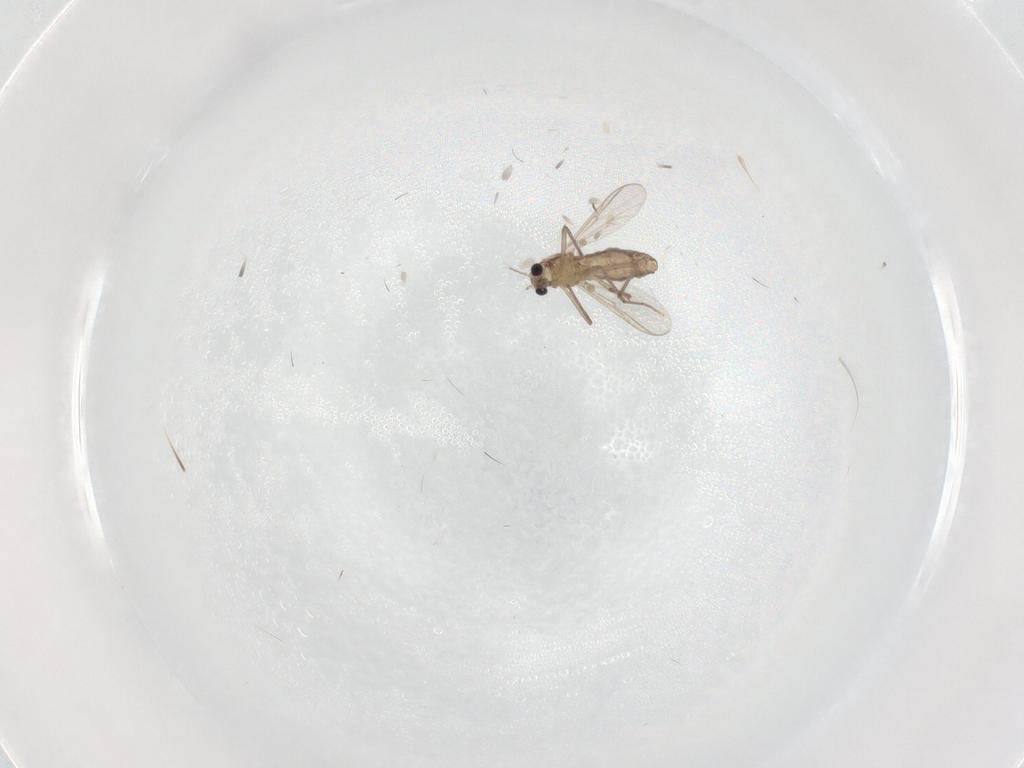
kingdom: Animalia
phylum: Arthropoda
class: Insecta
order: Diptera
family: Chironomidae
